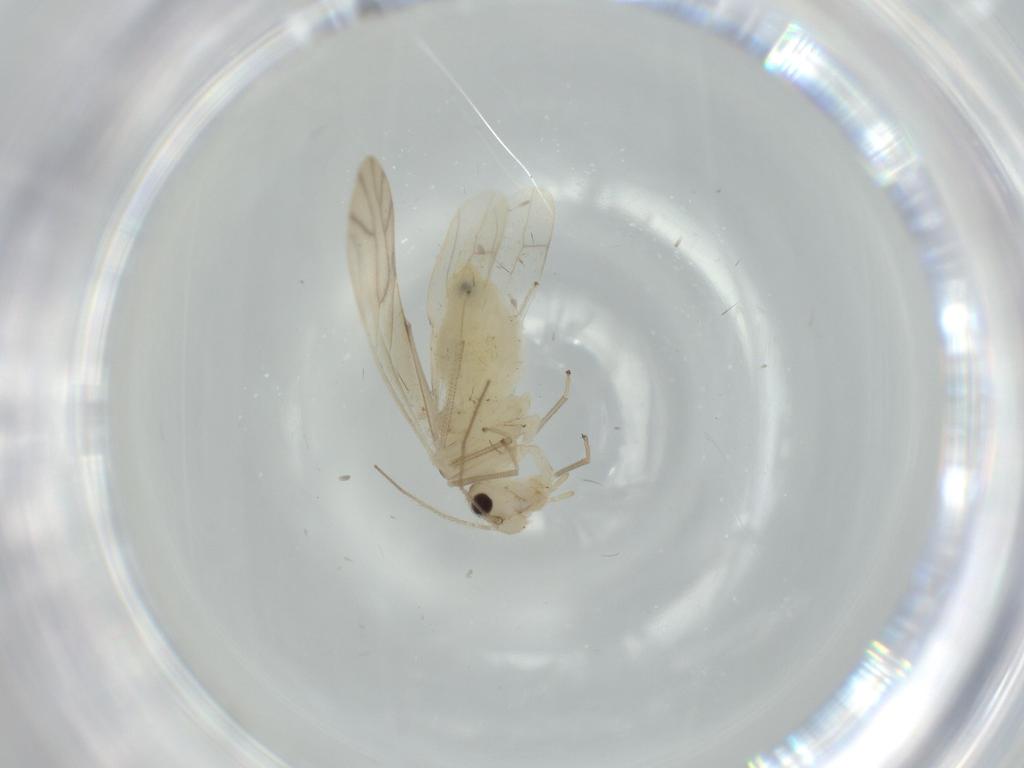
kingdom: Animalia
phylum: Arthropoda
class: Insecta
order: Psocodea
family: Caeciliusidae
